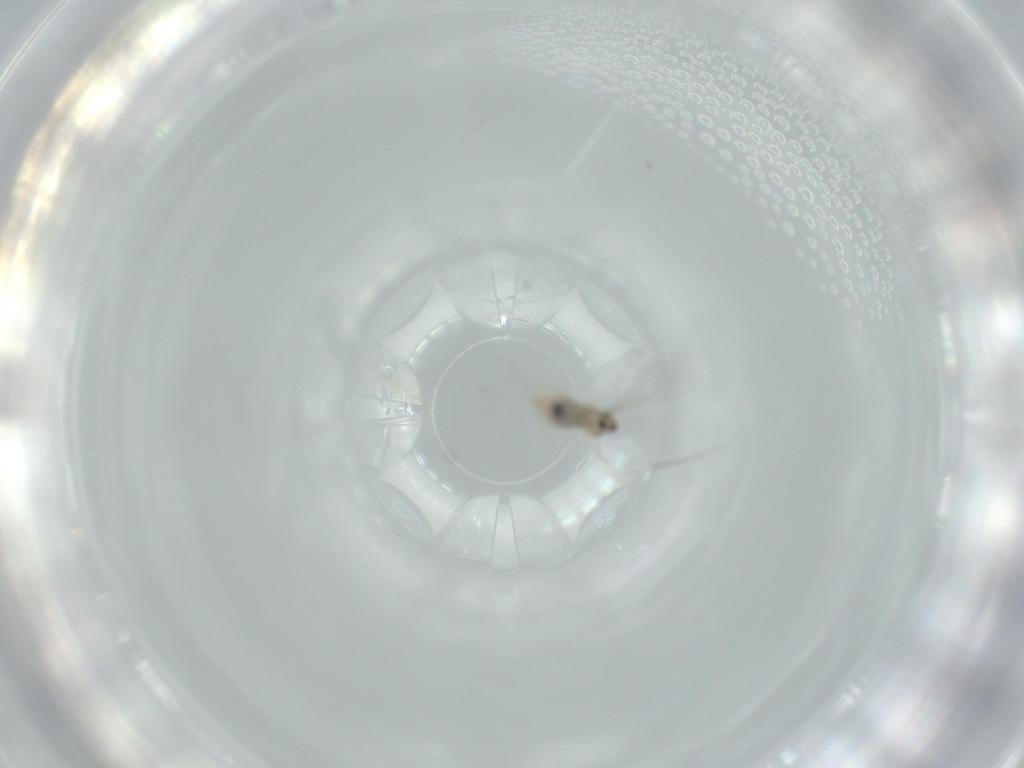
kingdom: Animalia
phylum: Arthropoda
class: Insecta
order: Diptera
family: Cecidomyiidae
